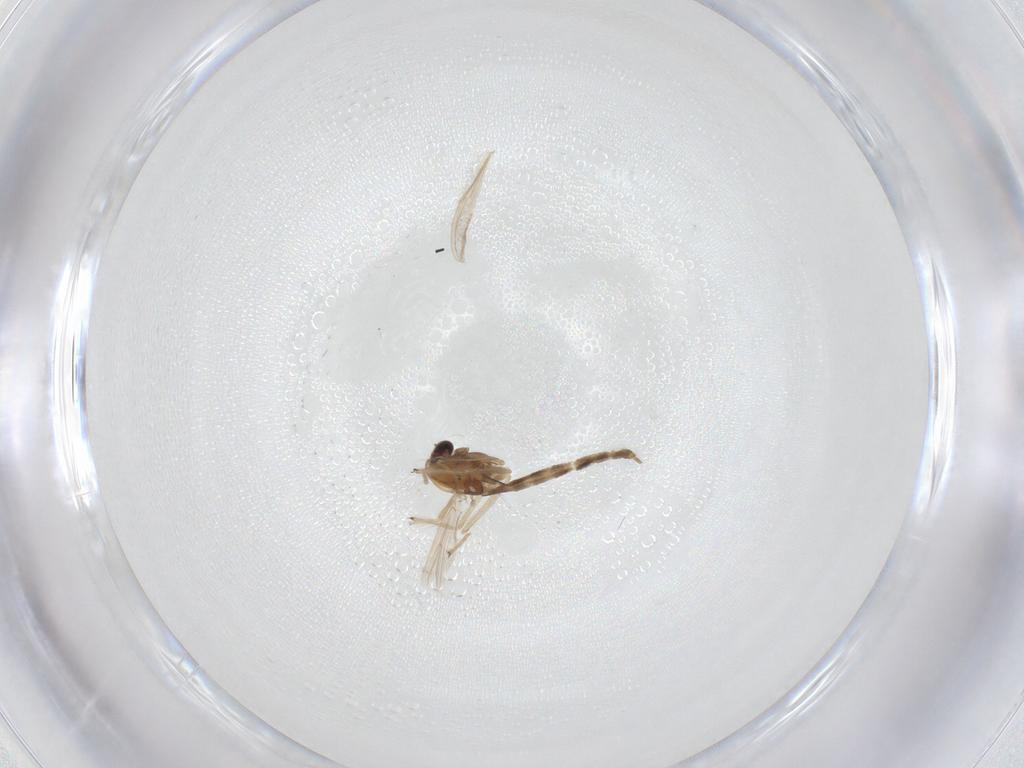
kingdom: Animalia
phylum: Arthropoda
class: Insecta
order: Diptera
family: Chironomidae
